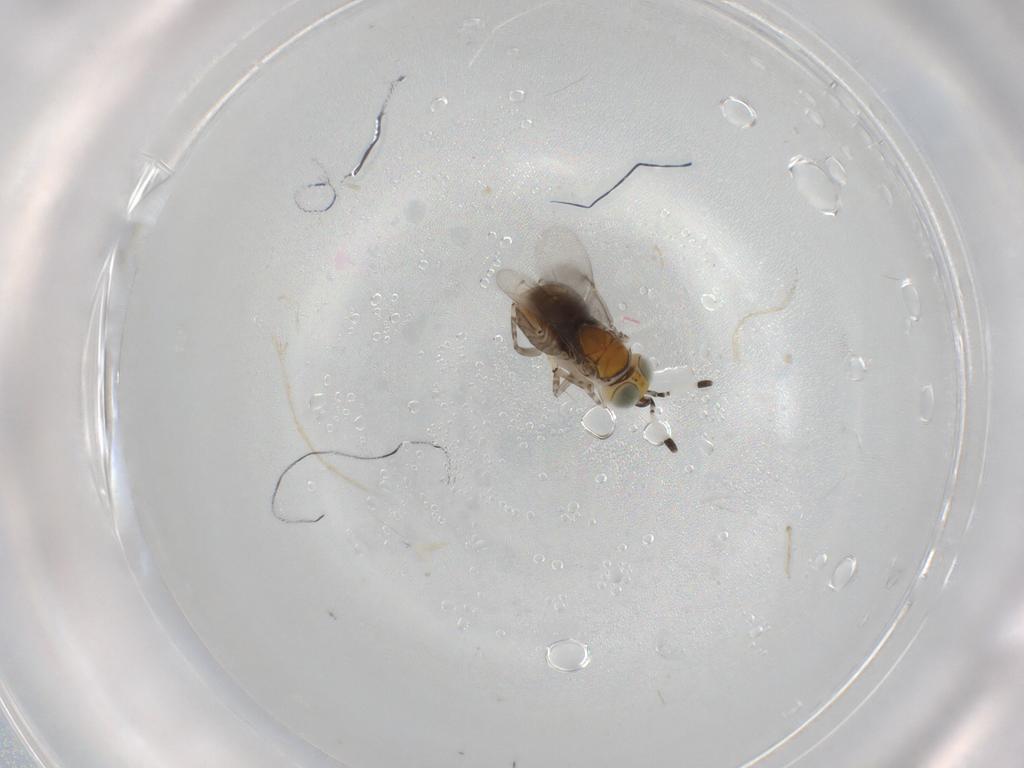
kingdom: Animalia
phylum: Arthropoda
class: Insecta
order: Hymenoptera
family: Encyrtidae
